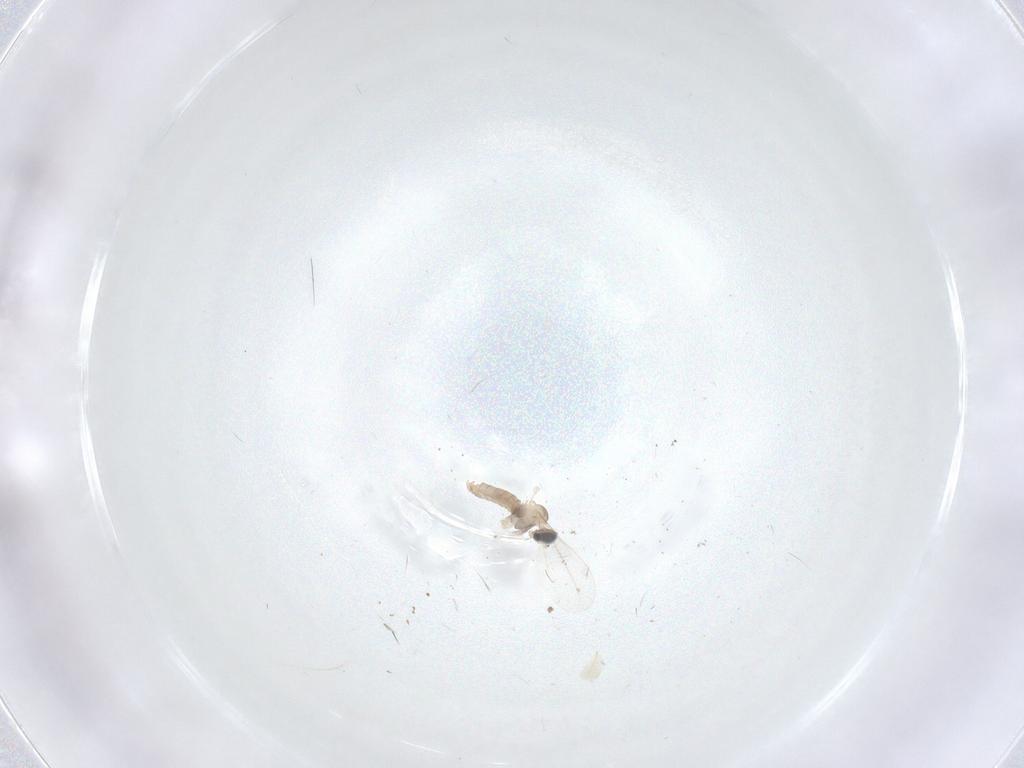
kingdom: Animalia
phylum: Arthropoda
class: Insecta
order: Diptera
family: Cecidomyiidae
